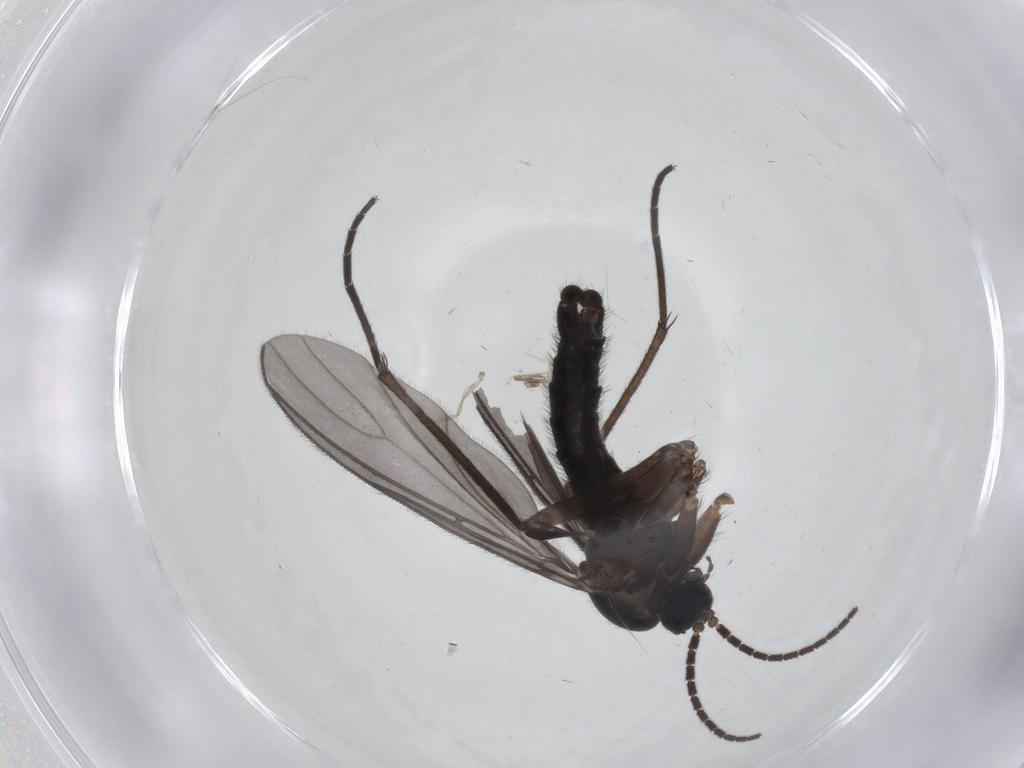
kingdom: Animalia
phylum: Arthropoda
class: Insecta
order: Diptera
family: Sciaridae
